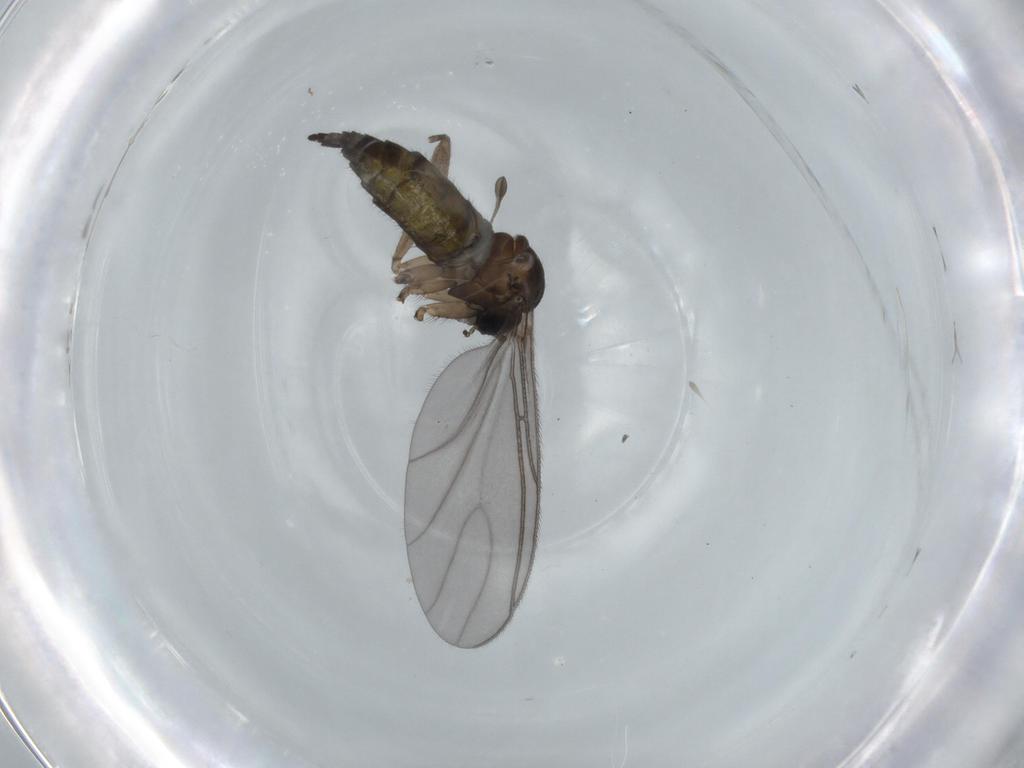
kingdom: Animalia
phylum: Arthropoda
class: Insecta
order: Diptera
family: Sciaridae
